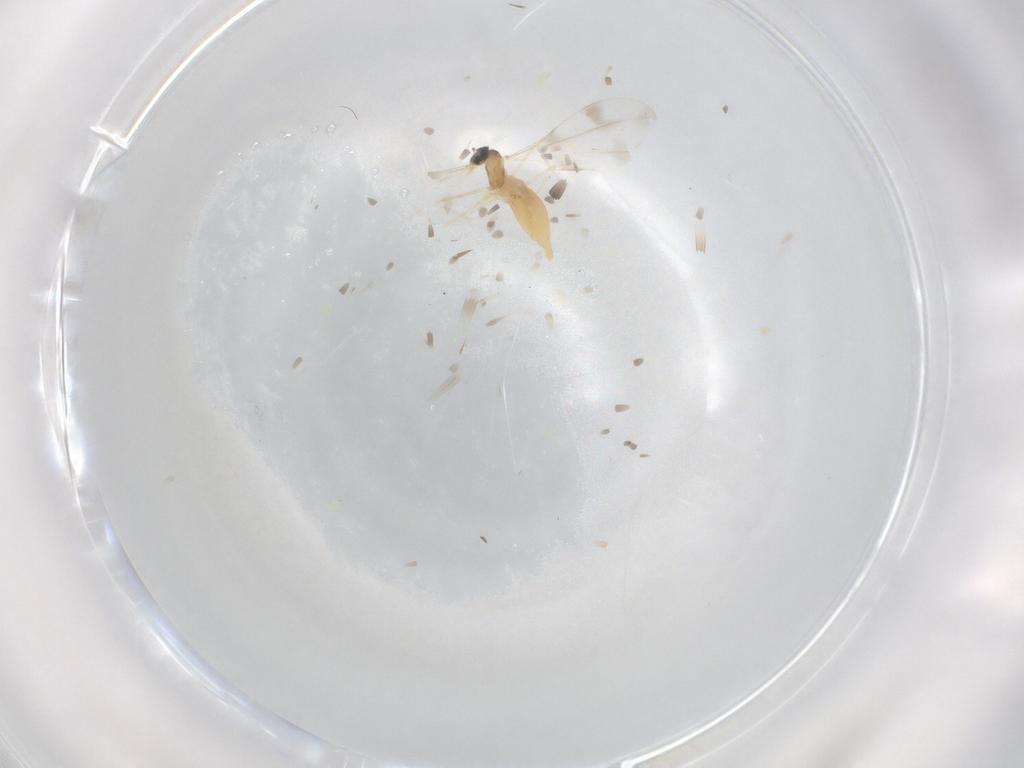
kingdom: Animalia
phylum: Arthropoda
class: Insecta
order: Diptera
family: Cecidomyiidae
